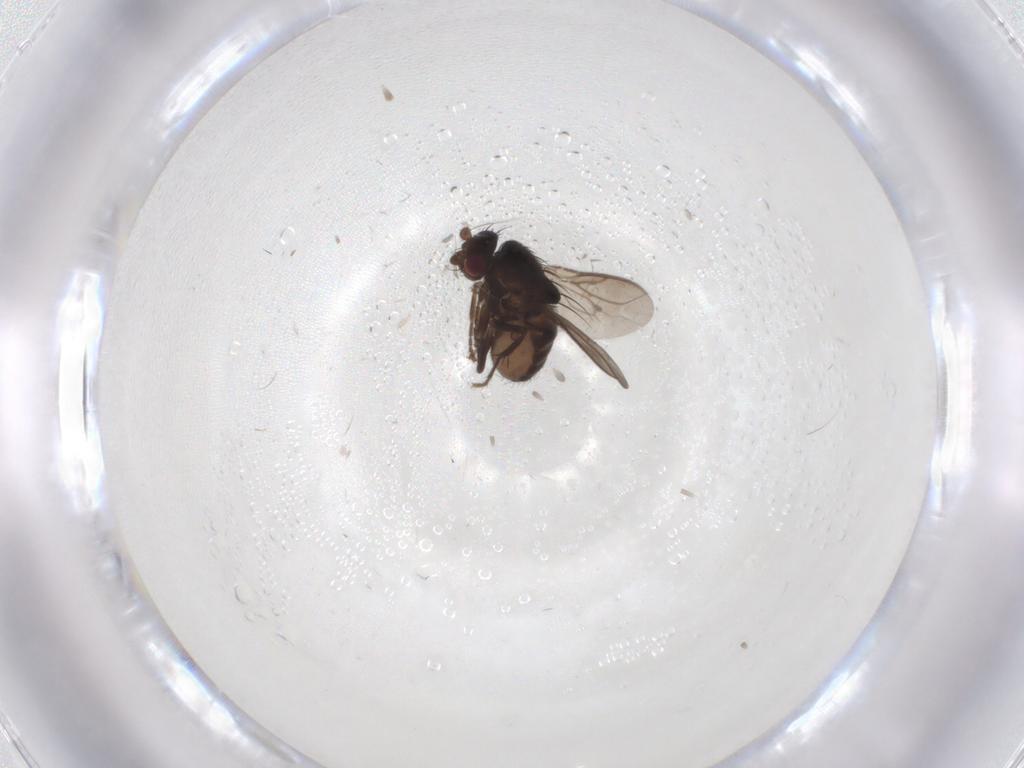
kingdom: Animalia
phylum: Arthropoda
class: Insecta
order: Diptera
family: Sphaeroceridae
